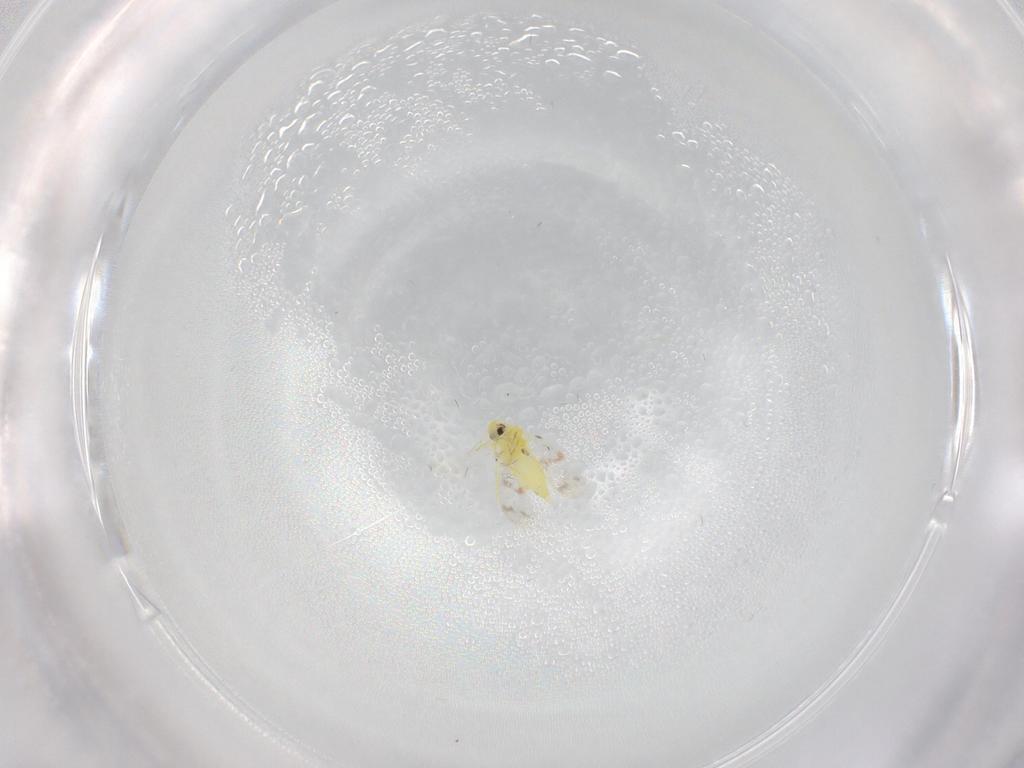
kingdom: Animalia
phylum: Arthropoda
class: Insecta
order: Hemiptera
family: Aleyrodidae
